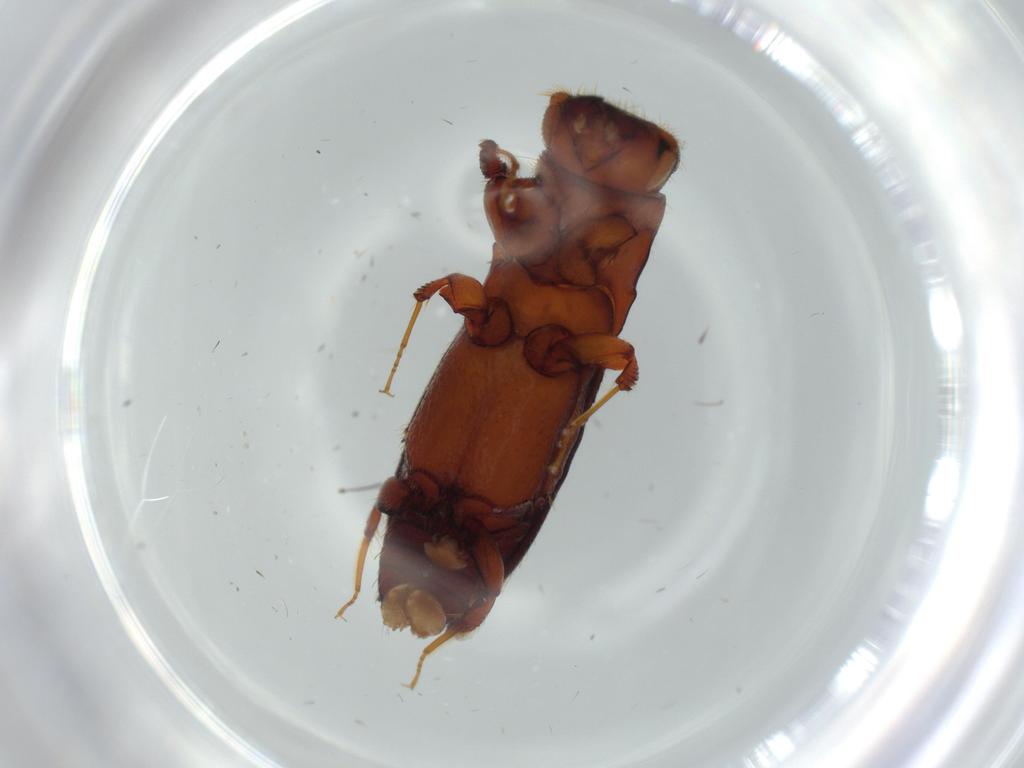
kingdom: Animalia
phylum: Arthropoda
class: Insecta
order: Coleoptera
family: Curculionidae
